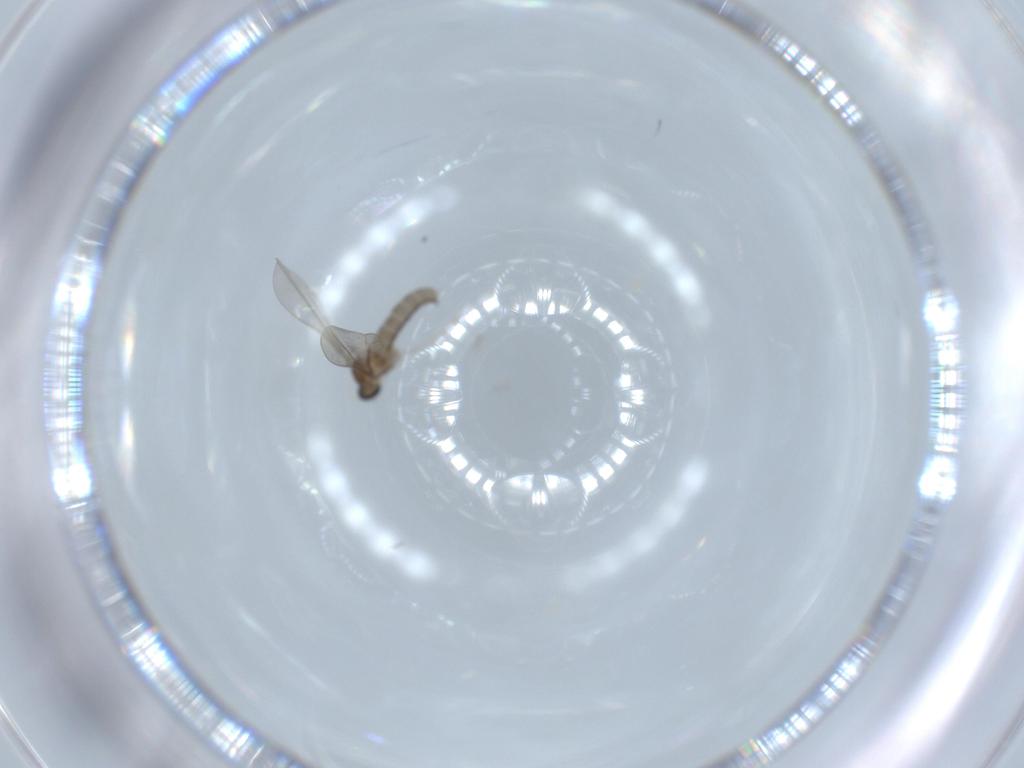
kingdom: Animalia
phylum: Arthropoda
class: Insecta
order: Diptera
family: Cecidomyiidae
